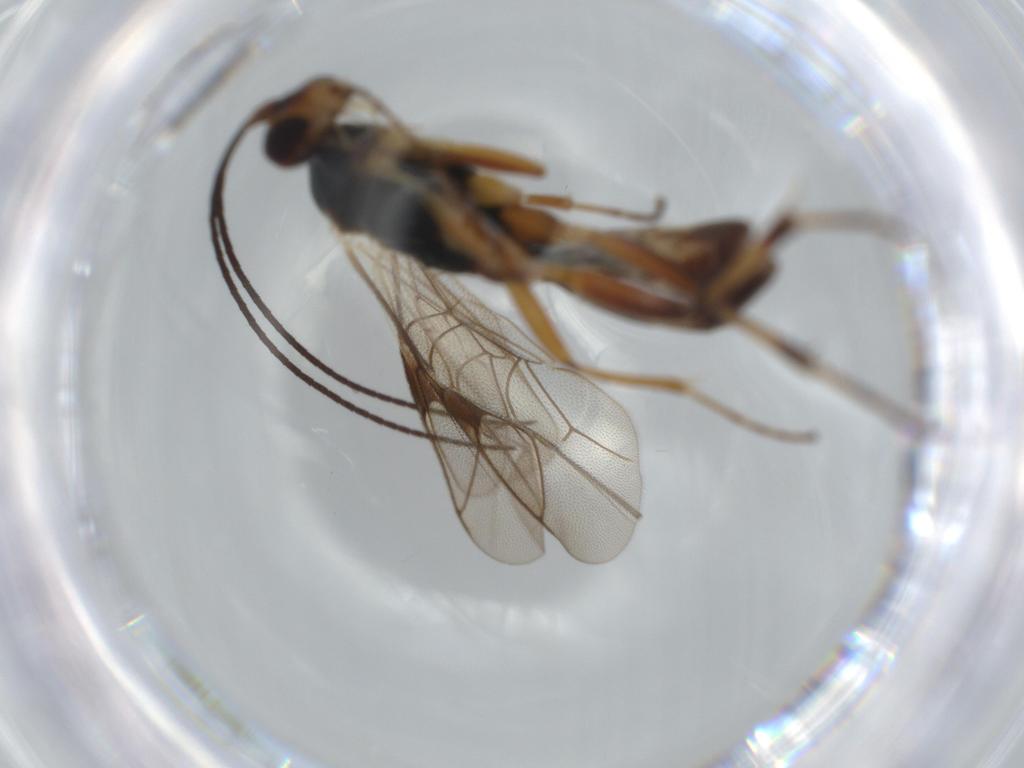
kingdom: Animalia
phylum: Arthropoda
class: Insecta
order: Hymenoptera
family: Ichneumonidae
